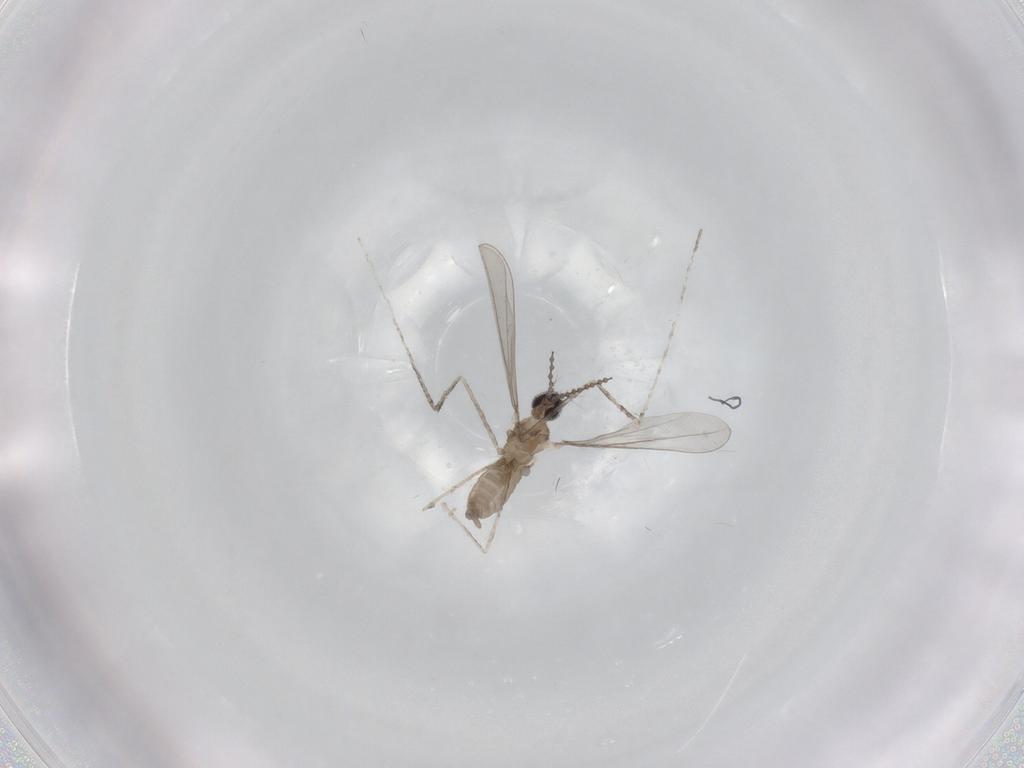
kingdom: Animalia
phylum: Arthropoda
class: Insecta
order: Diptera
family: Cecidomyiidae
